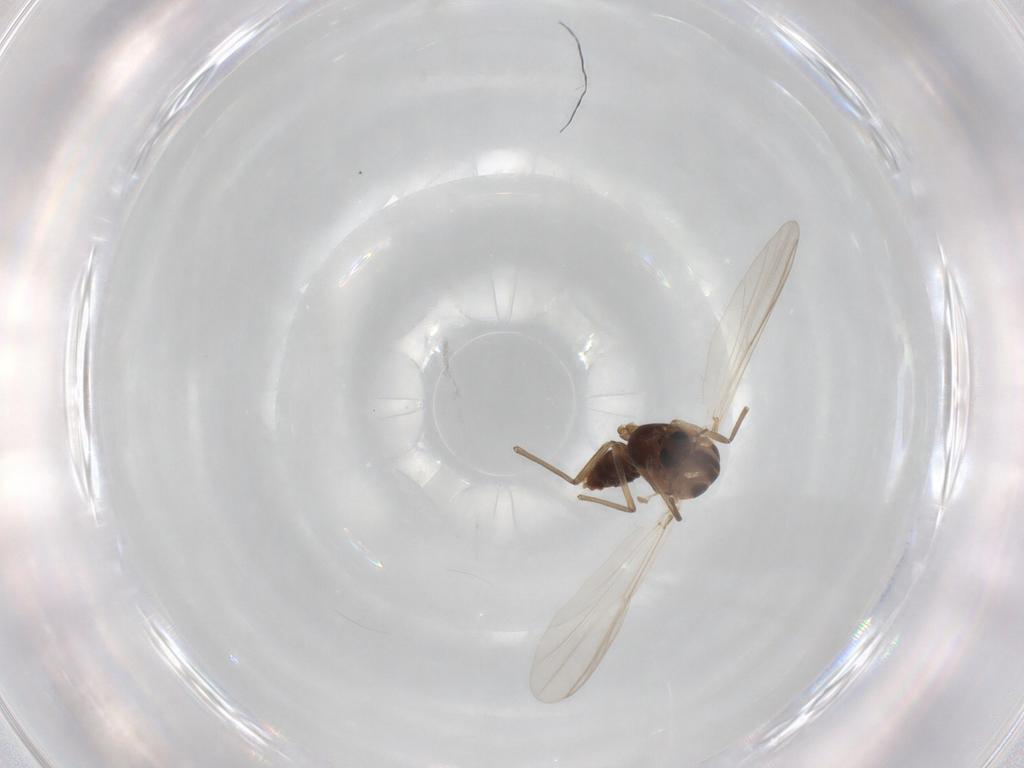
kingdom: Animalia
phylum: Arthropoda
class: Insecta
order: Diptera
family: Chironomidae
